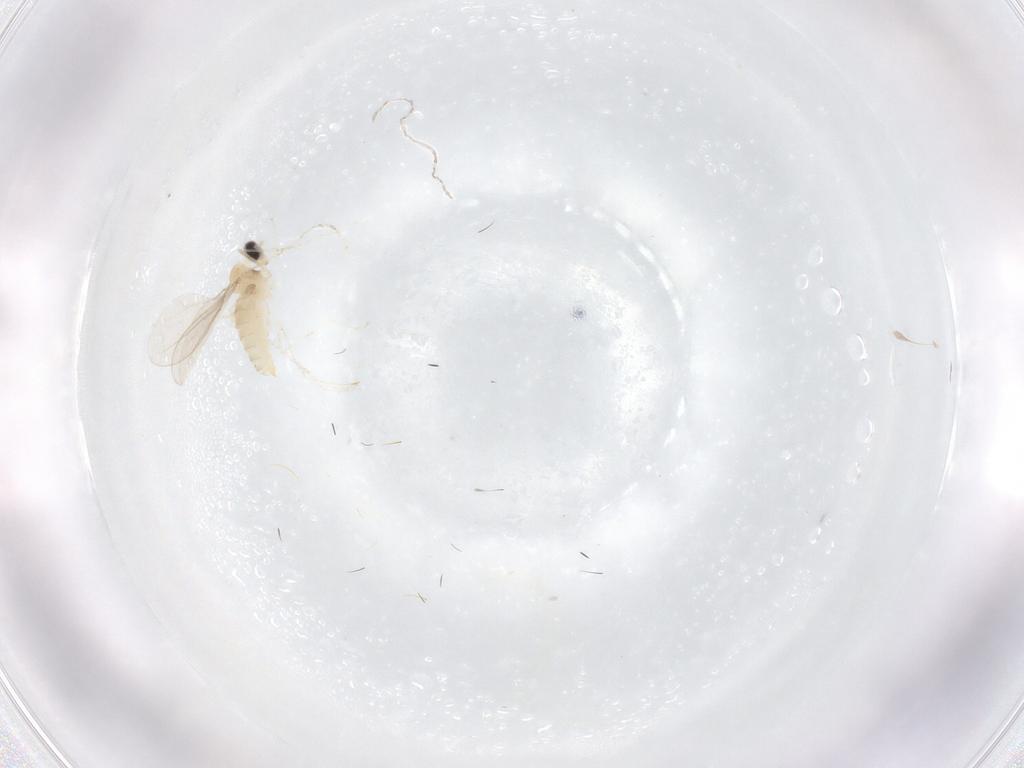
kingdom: Animalia
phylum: Arthropoda
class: Insecta
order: Diptera
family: Cecidomyiidae
